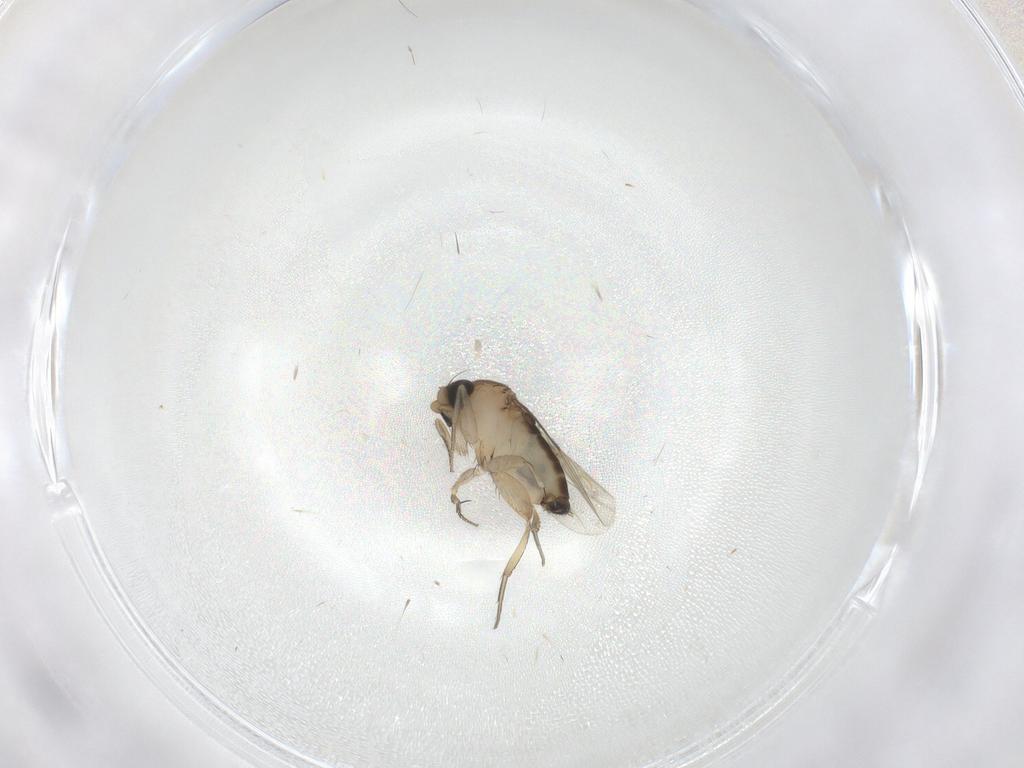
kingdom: Animalia
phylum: Arthropoda
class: Insecta
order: Diptera
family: Phoridae
